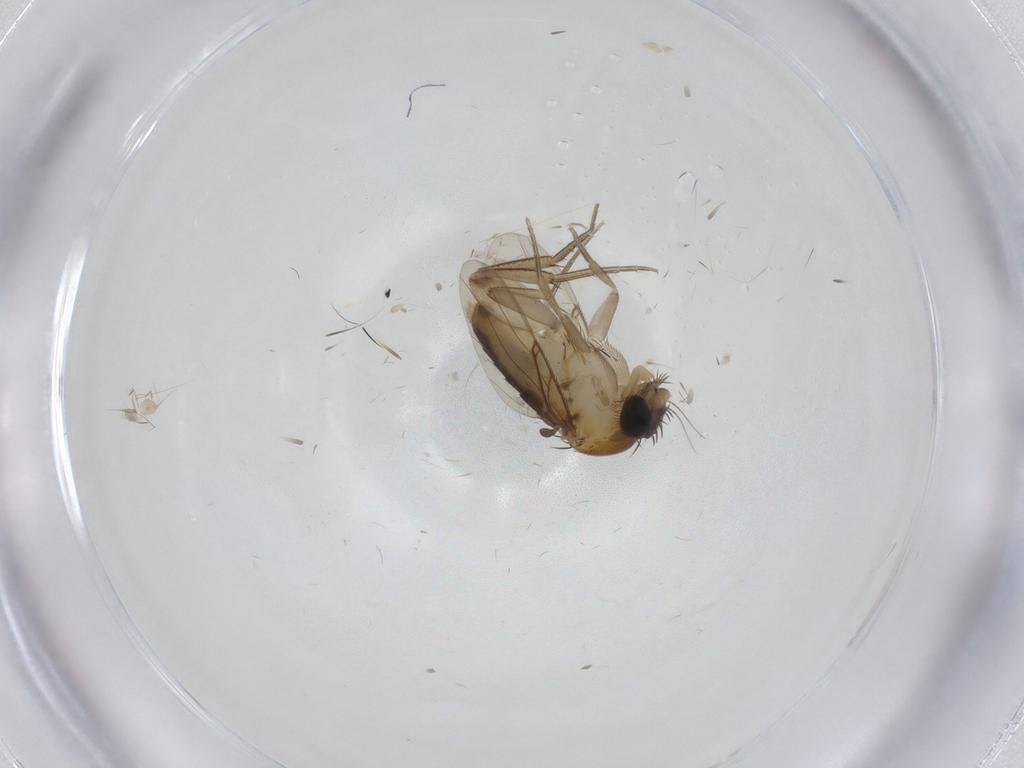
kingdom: Animalia
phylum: Arthropoda
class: Insecta
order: Diptera
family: Phoridae
